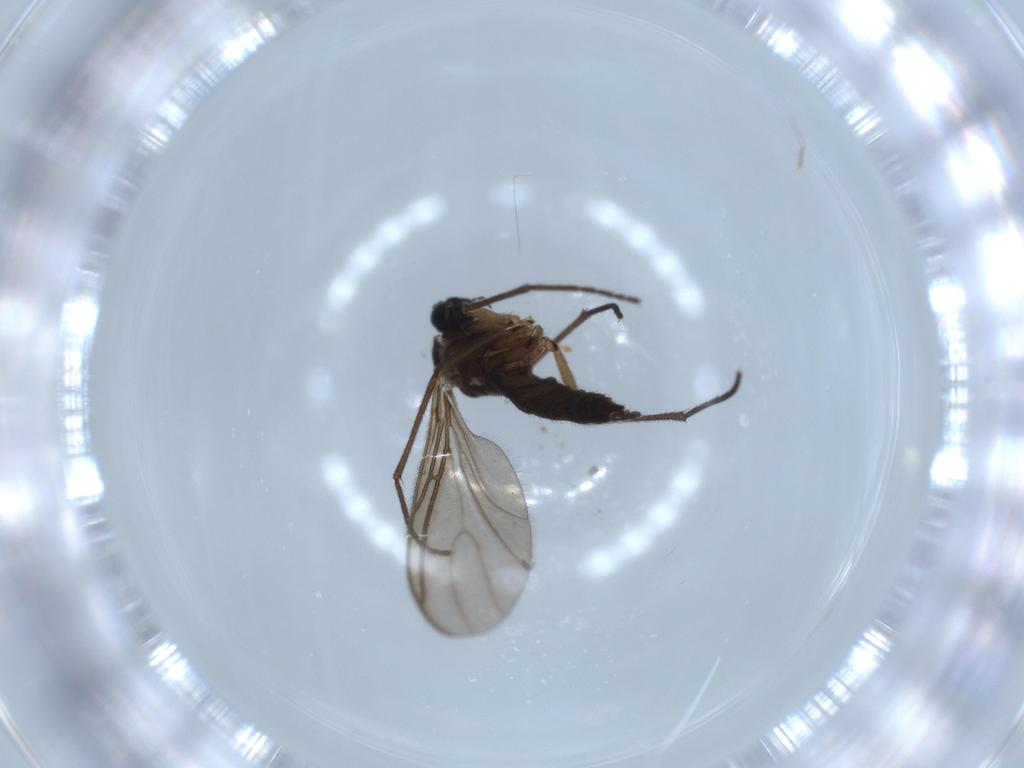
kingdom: Animalia
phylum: Arthropoda
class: Insecta
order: Diptera
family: Sciaridae
